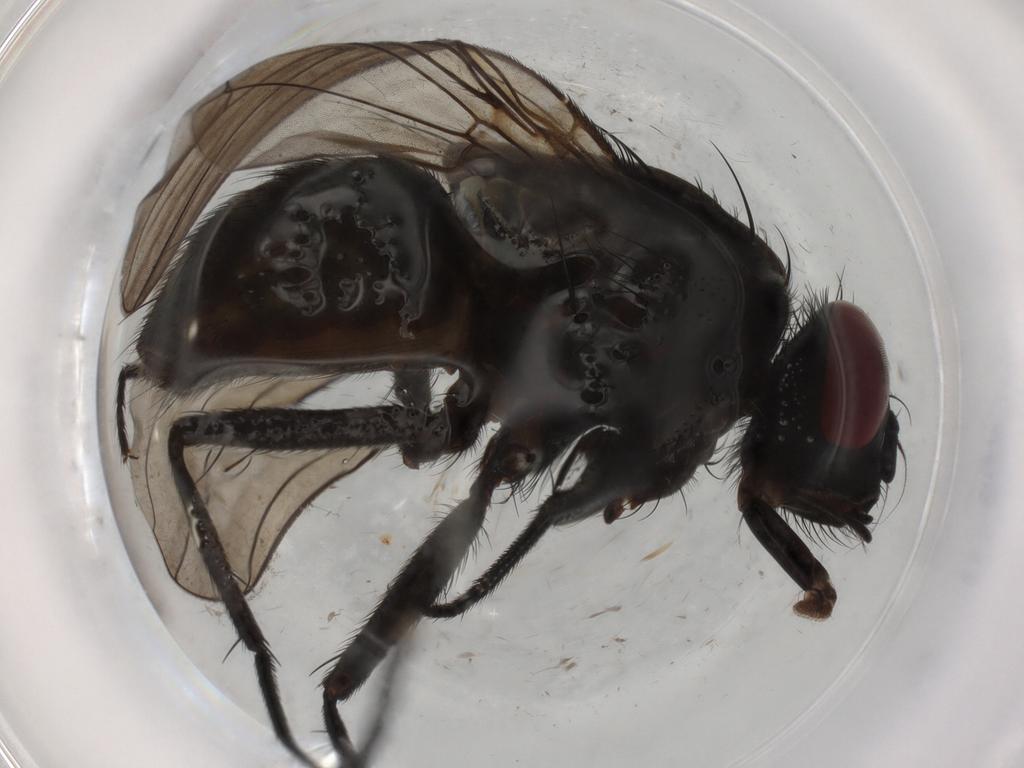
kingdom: Animalia
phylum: Arthropoda
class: Insecta
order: Diptera
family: Muscidae
